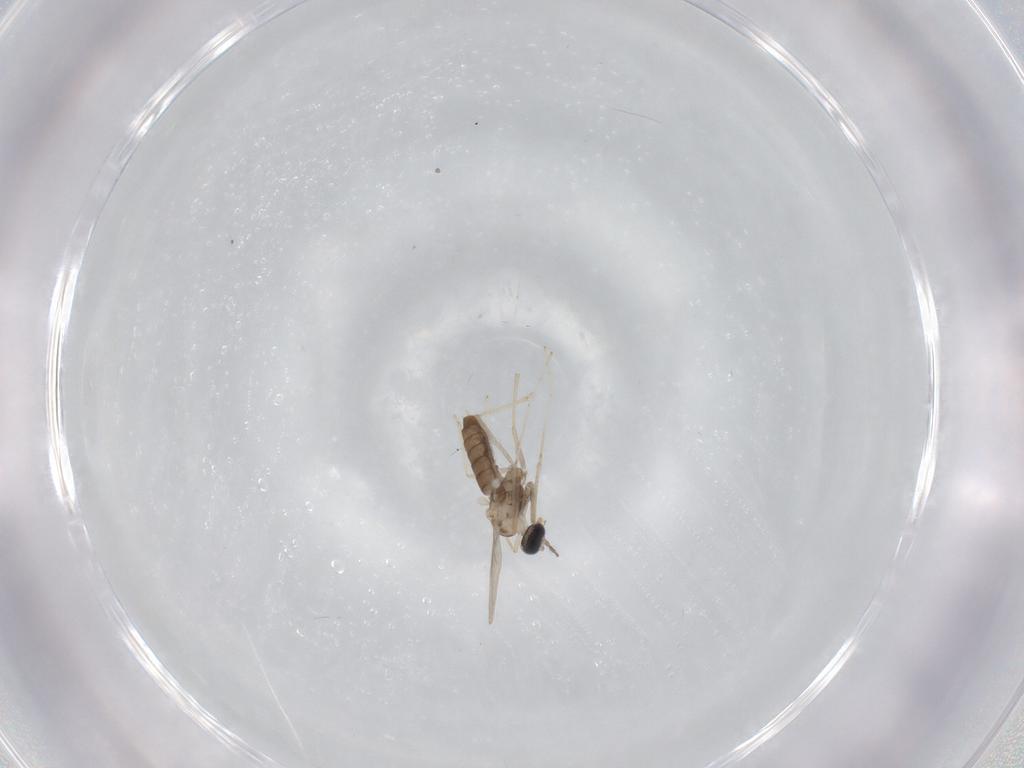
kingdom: Animalia
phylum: Arthropoda
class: Insecta
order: Diptera
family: Cecidomyiidae
